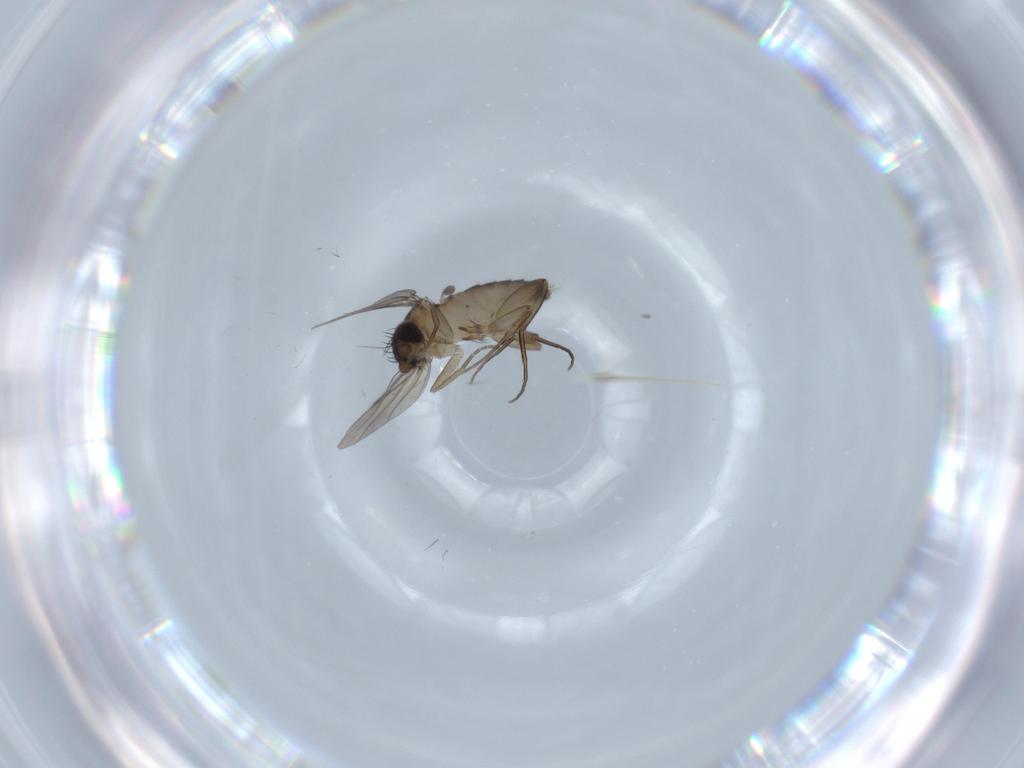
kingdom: Animalia
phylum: Arthropoda
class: Insecta
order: Diptera
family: Phoridae
